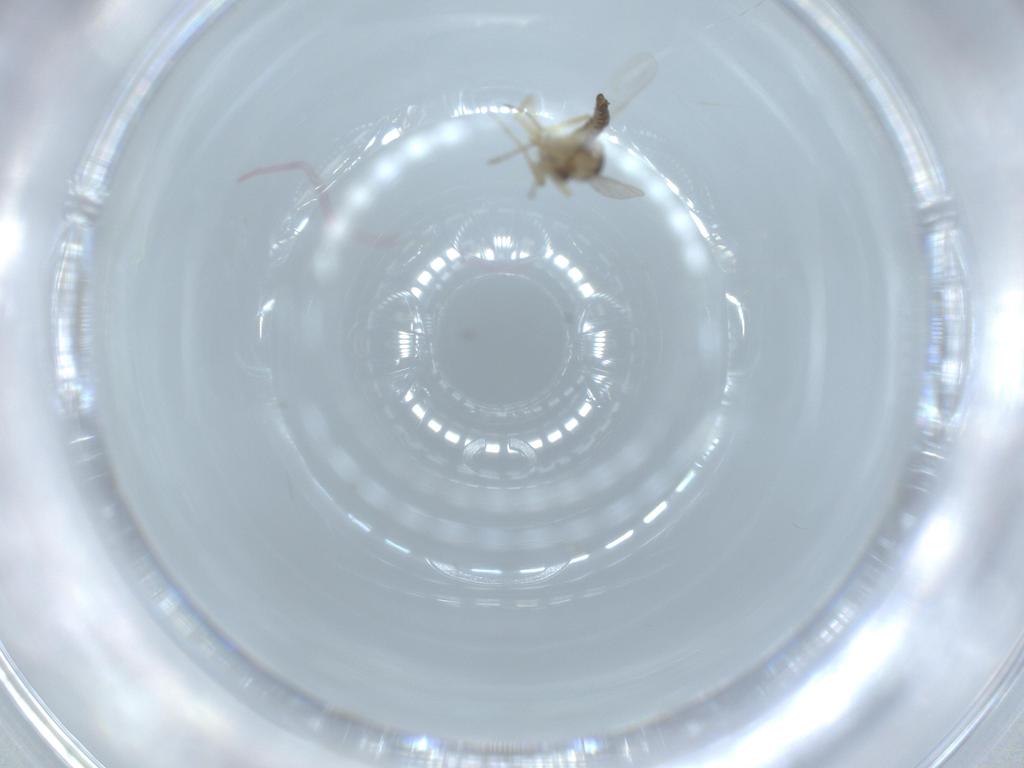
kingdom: Animalia
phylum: Arthropoda
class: Insecta
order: Diptera
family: Ceratopogonidae
